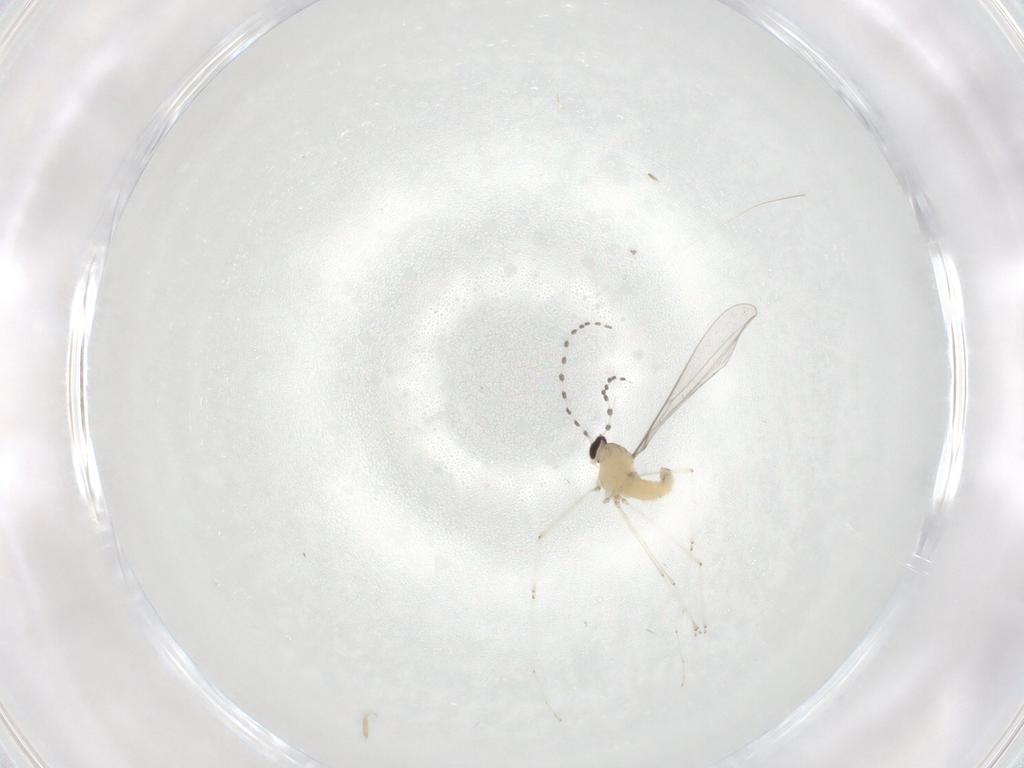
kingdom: Animalia
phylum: Arthropoda
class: Insecta
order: Diptera
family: Cecidomyiidae
